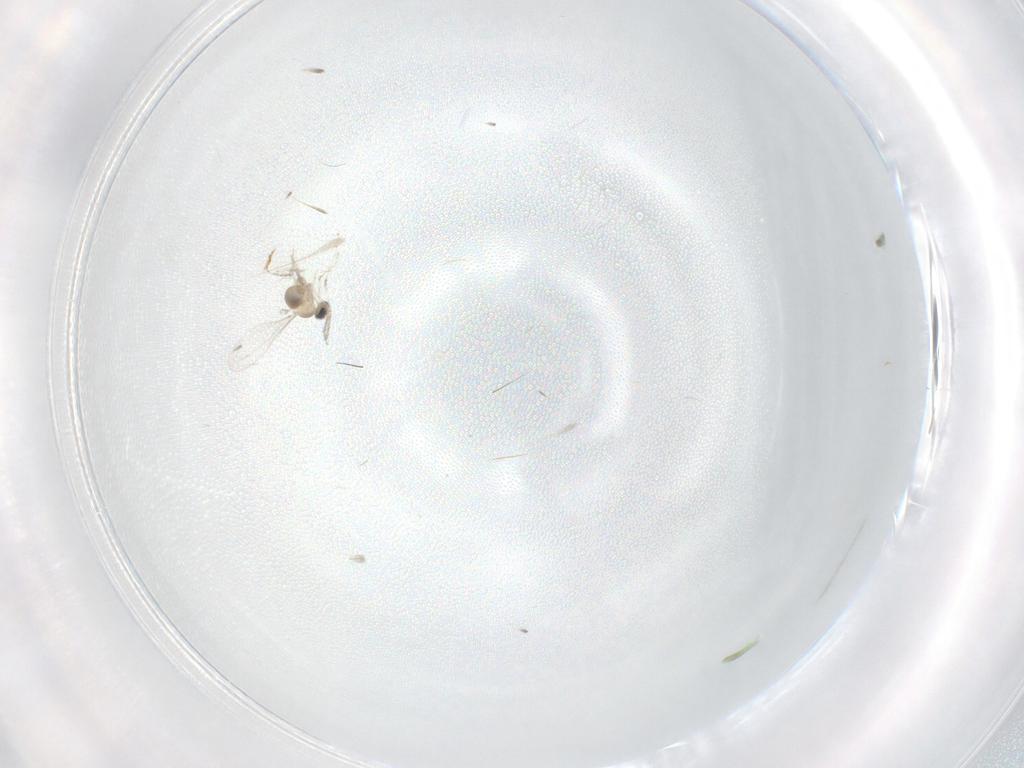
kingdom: Animalia
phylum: Arthropoda
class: Insecta
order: Diptera
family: Cecidomyiidae
